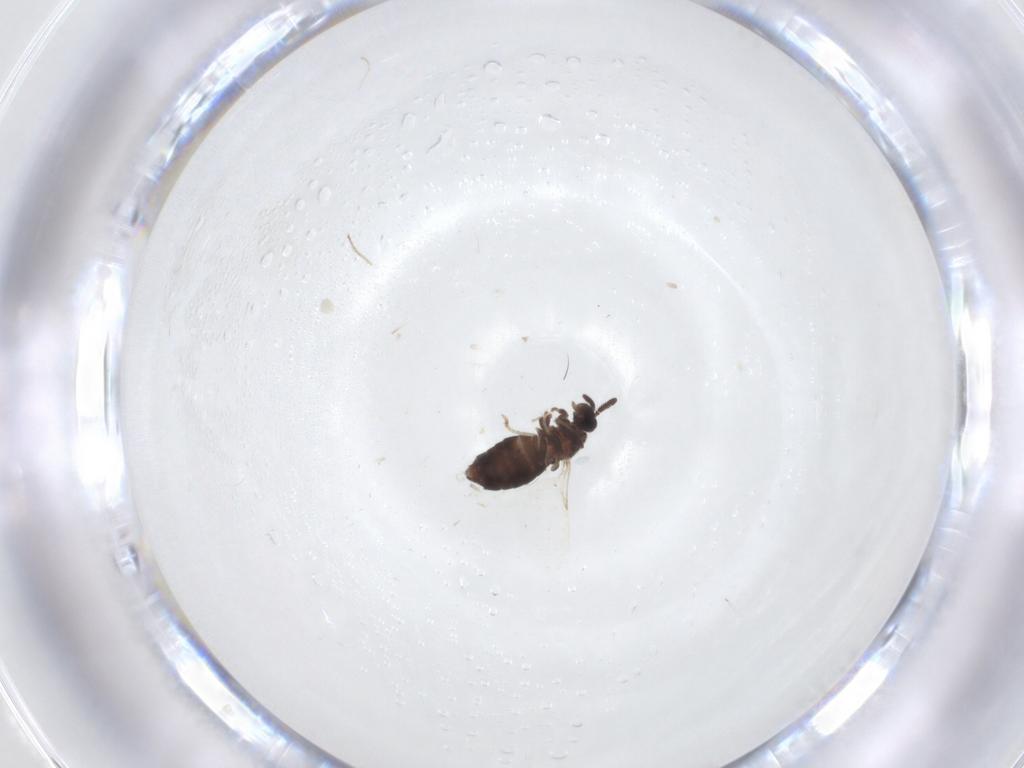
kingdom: Animalia
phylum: Arthropoda
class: Insecta
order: Diptera
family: Scatopsidae
